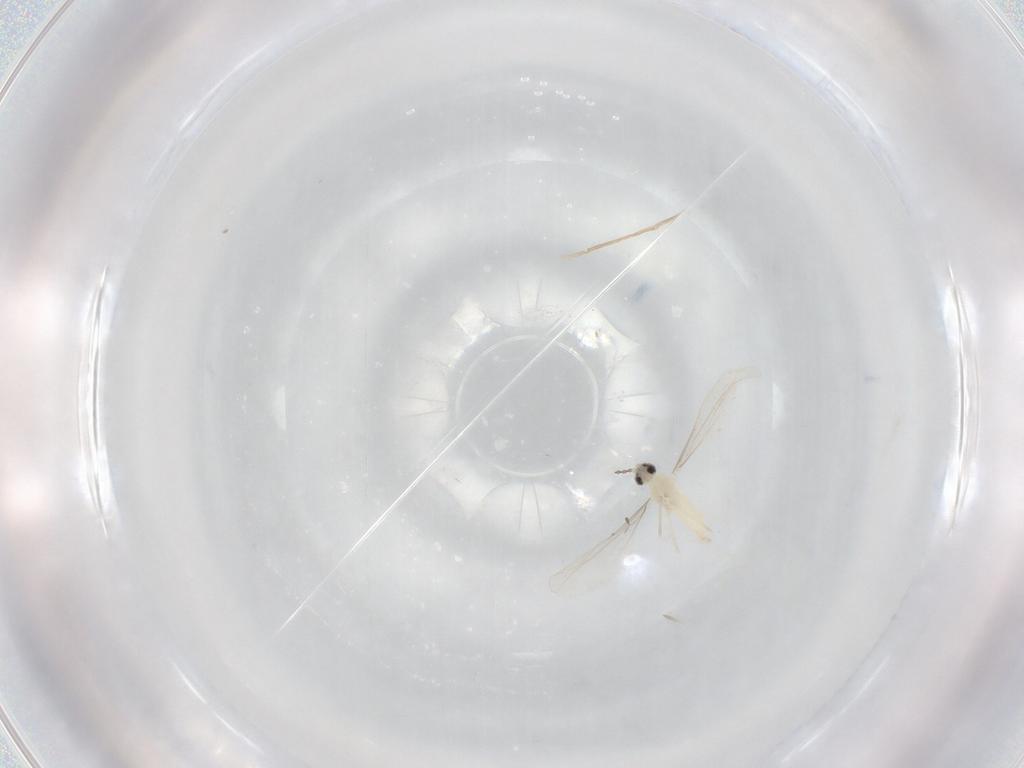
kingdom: Animalia
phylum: Arthropoda
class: Insecta
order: Diptera
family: Cecidomyiidae
